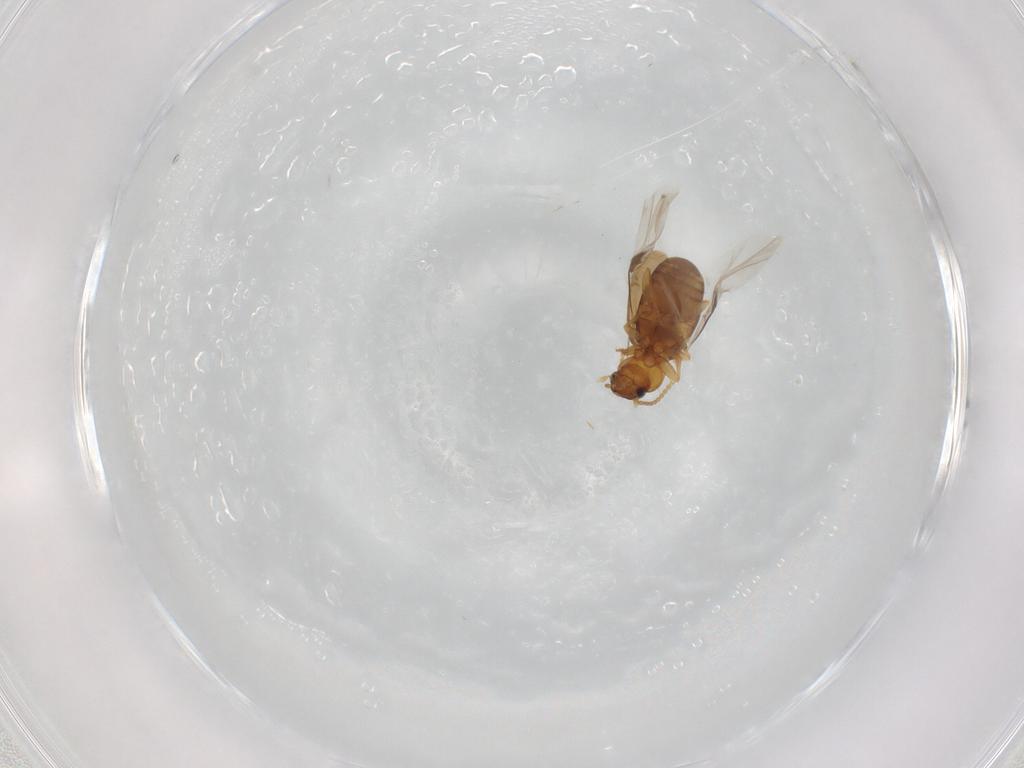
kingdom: Animalia
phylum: Arthropoda
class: Insecta
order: Coleoptera
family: Carabidae
